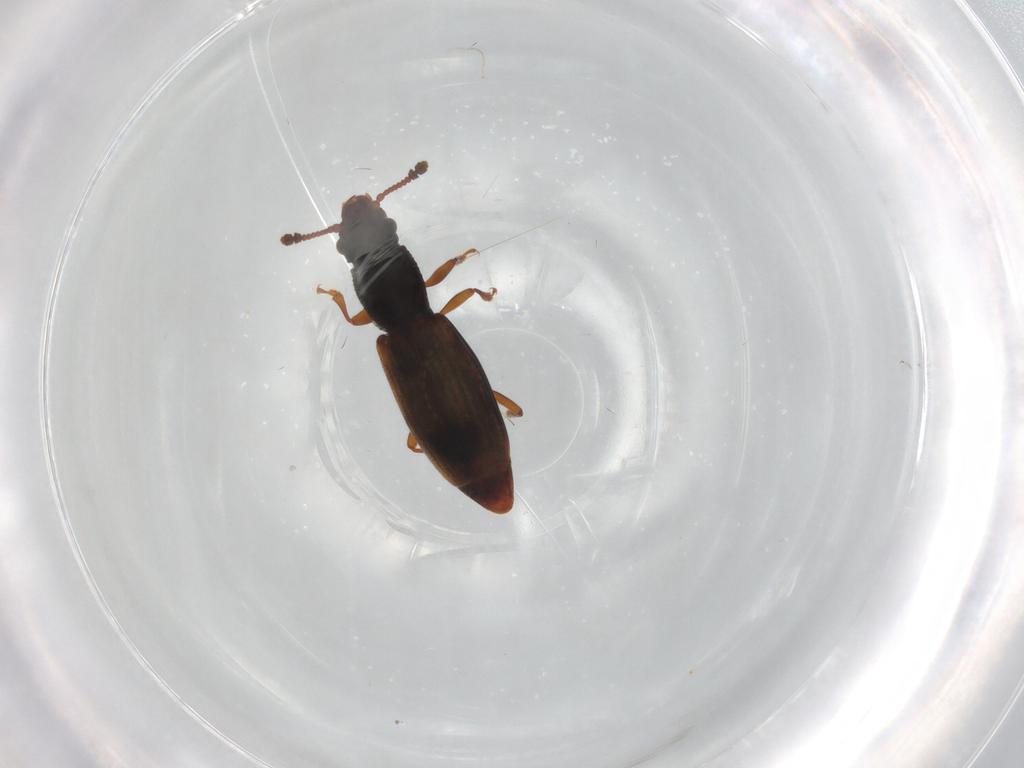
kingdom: Animalia
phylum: Arthropoda
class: Insecta
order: Coleoptera
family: Monotomidae
